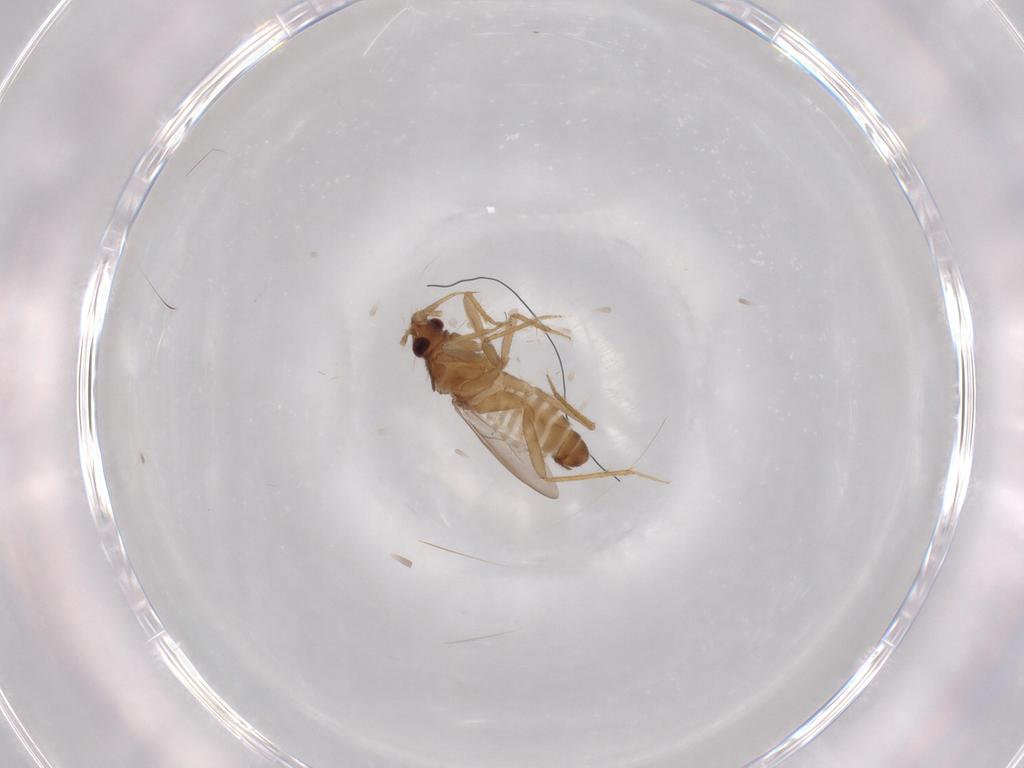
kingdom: Animalia
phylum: Arthropoda
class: Insecta
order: Hemiptera
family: Ceratocombidae
